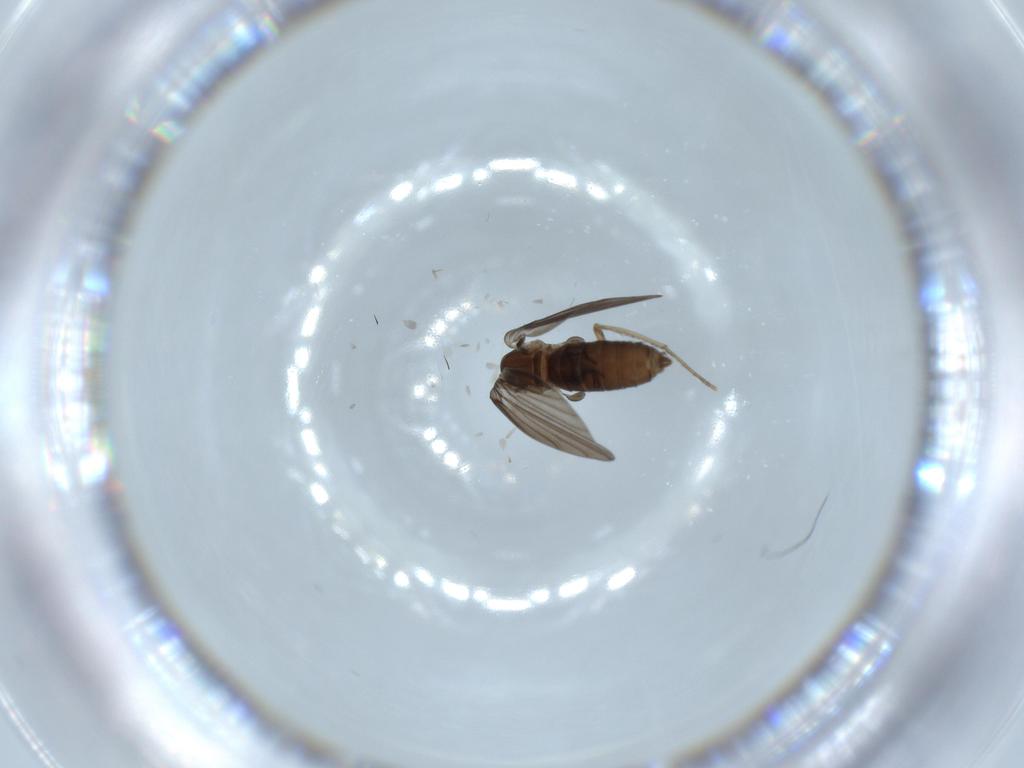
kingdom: Animalia
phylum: Arthropoda
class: Insecta
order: Diptera
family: Psychodidae
